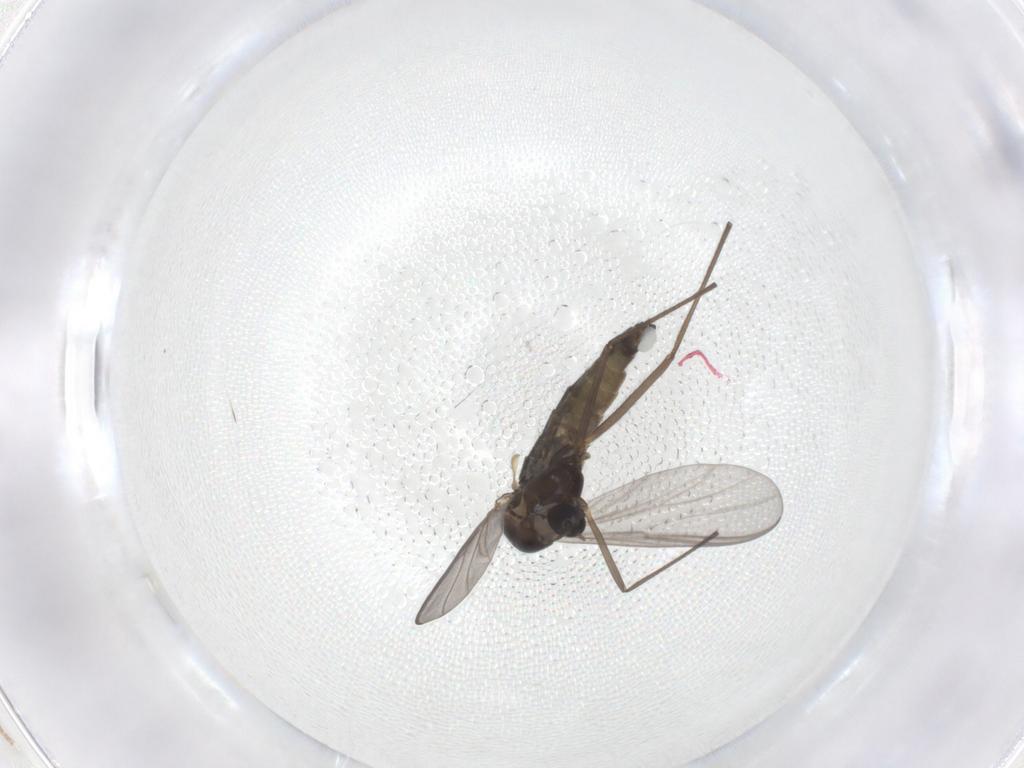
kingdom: Animalia
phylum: Arthropoda
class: Insecta
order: Diptera
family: Chironomidae
